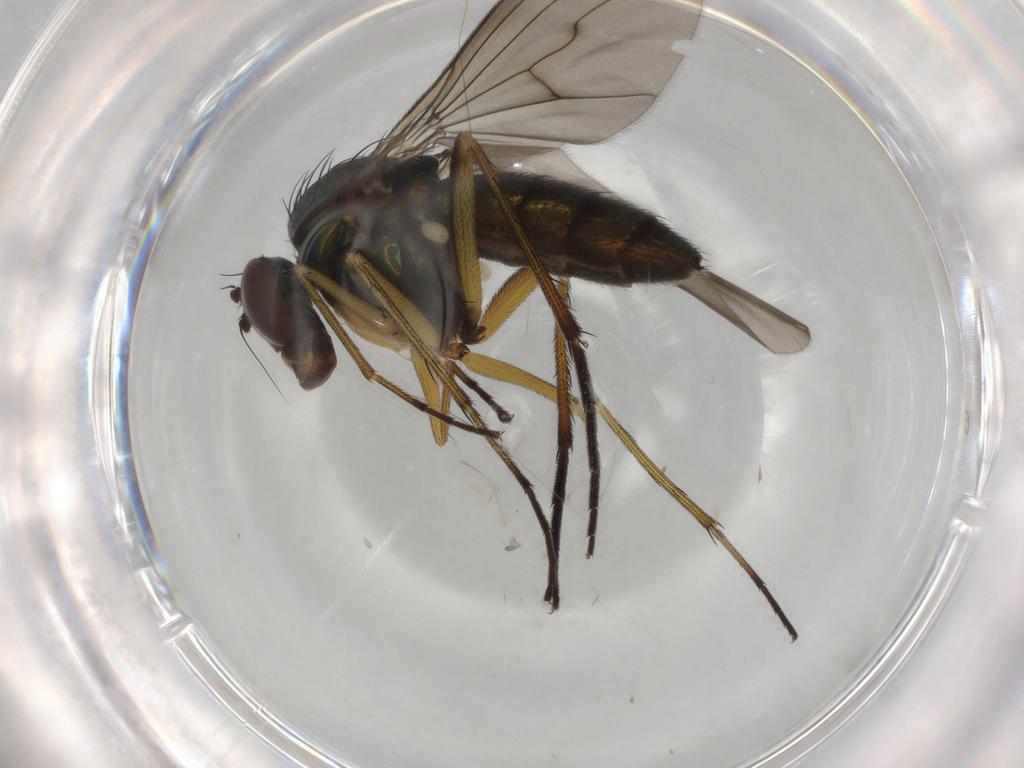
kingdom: Animalia
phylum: Arthropoda
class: Insecta
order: Diptera
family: Dolichopodidae
